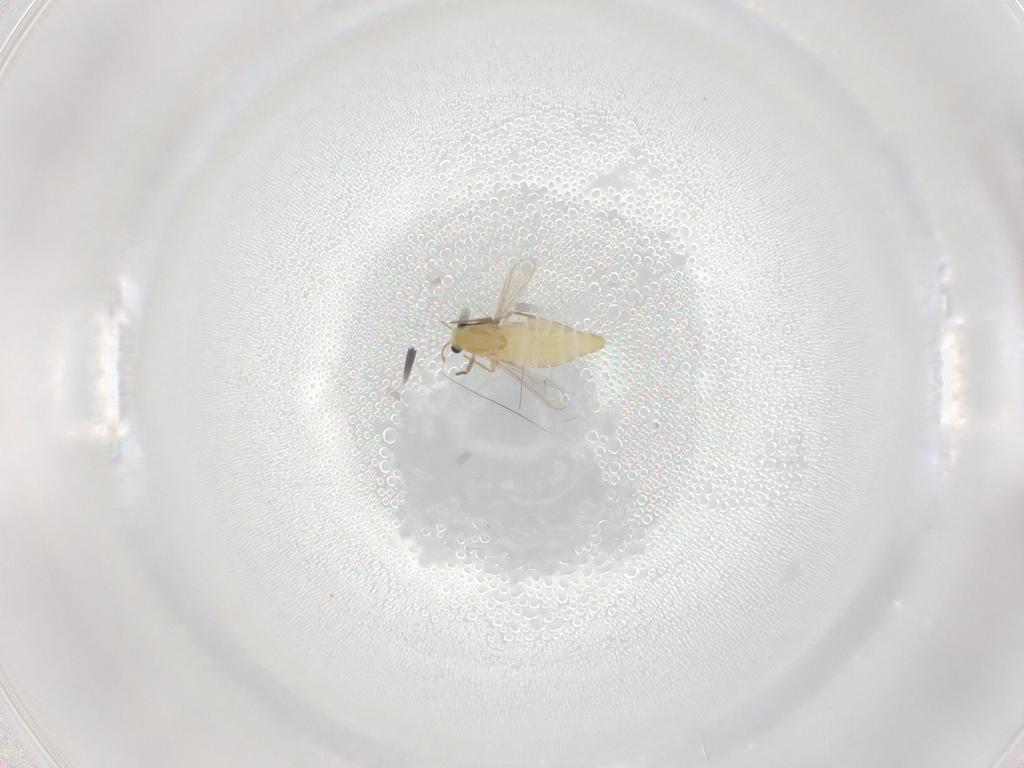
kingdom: Animalia
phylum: Arthropoda
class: Insecta
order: Diptera
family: Chironomidae
